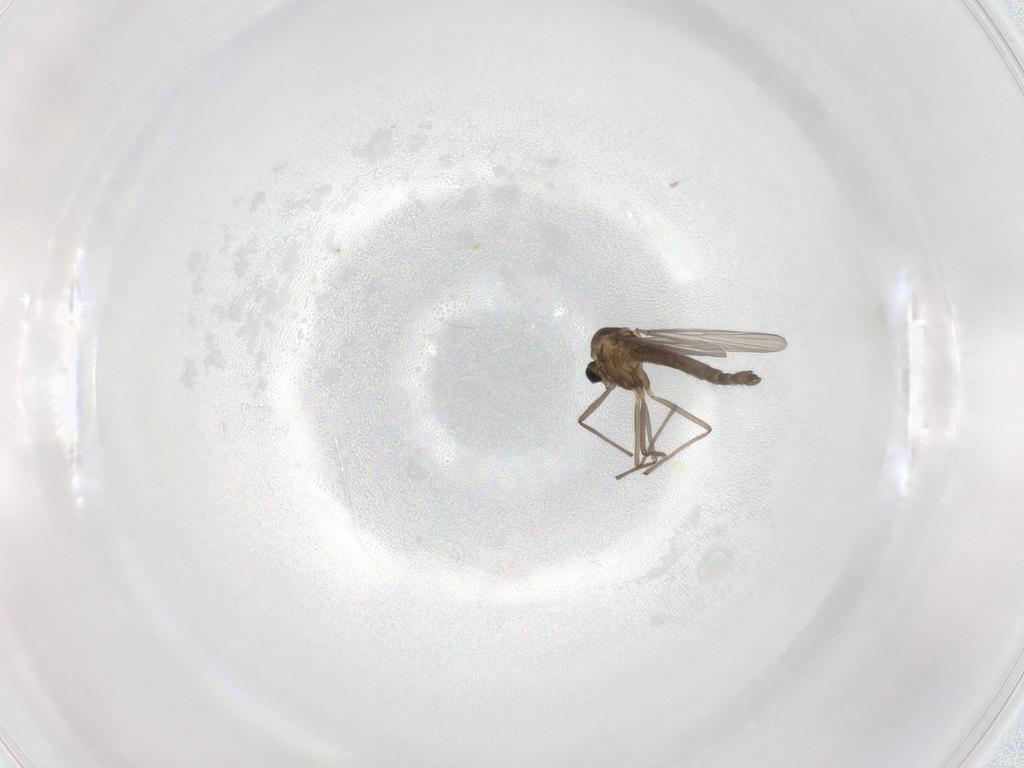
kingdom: Animalia
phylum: Arthropoda
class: Insecta
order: Diptera
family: Chironomidae
